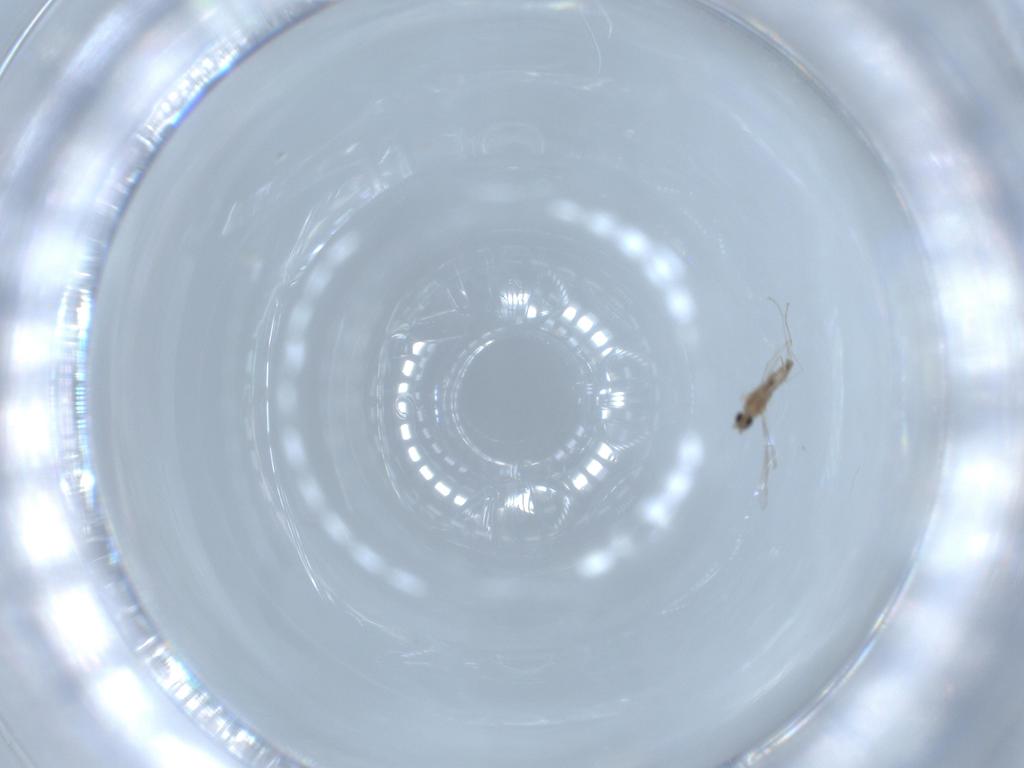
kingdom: Animalia
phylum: Arthropoda
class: Insecta
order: Diptera
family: Cecidomyiidae
